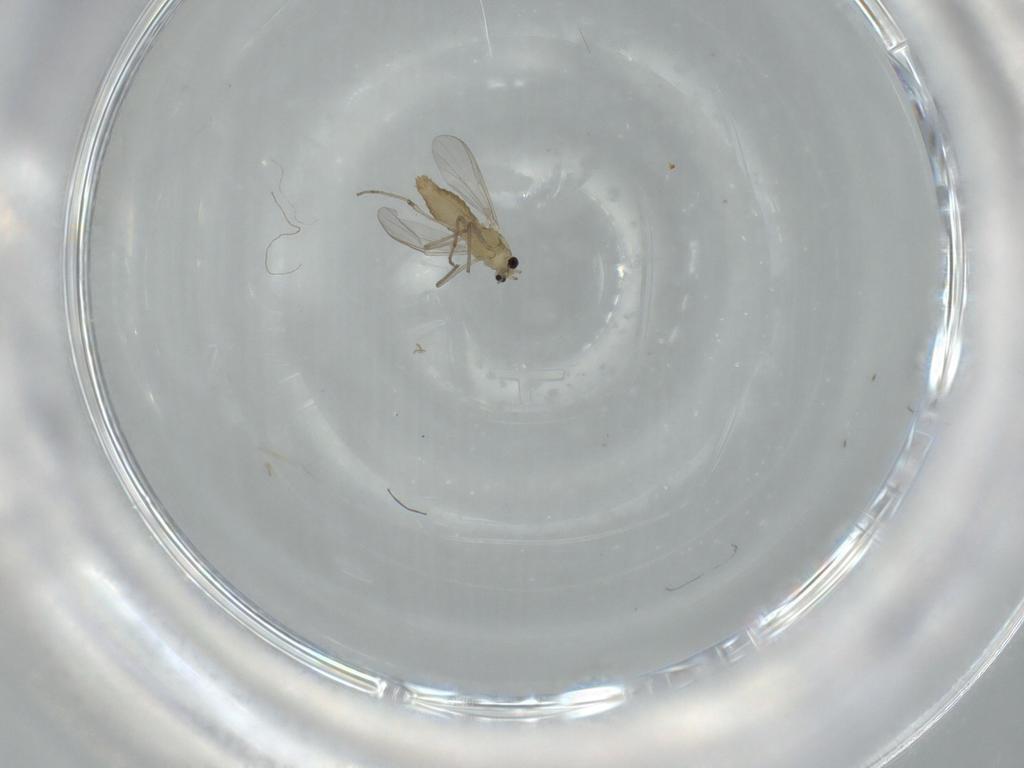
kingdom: Animalia
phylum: Arthropoda
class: Insecta
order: Diptera
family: Chironomidae
